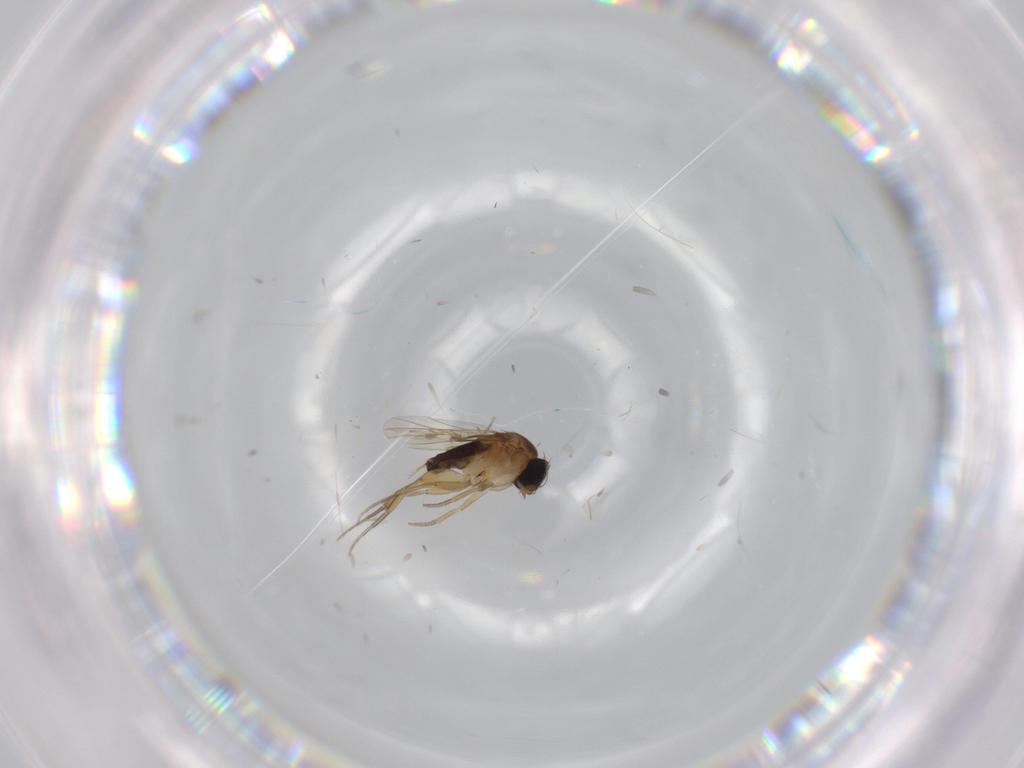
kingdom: Animalia
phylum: Arthropoda
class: Insecta
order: Diptera
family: Phoridae
